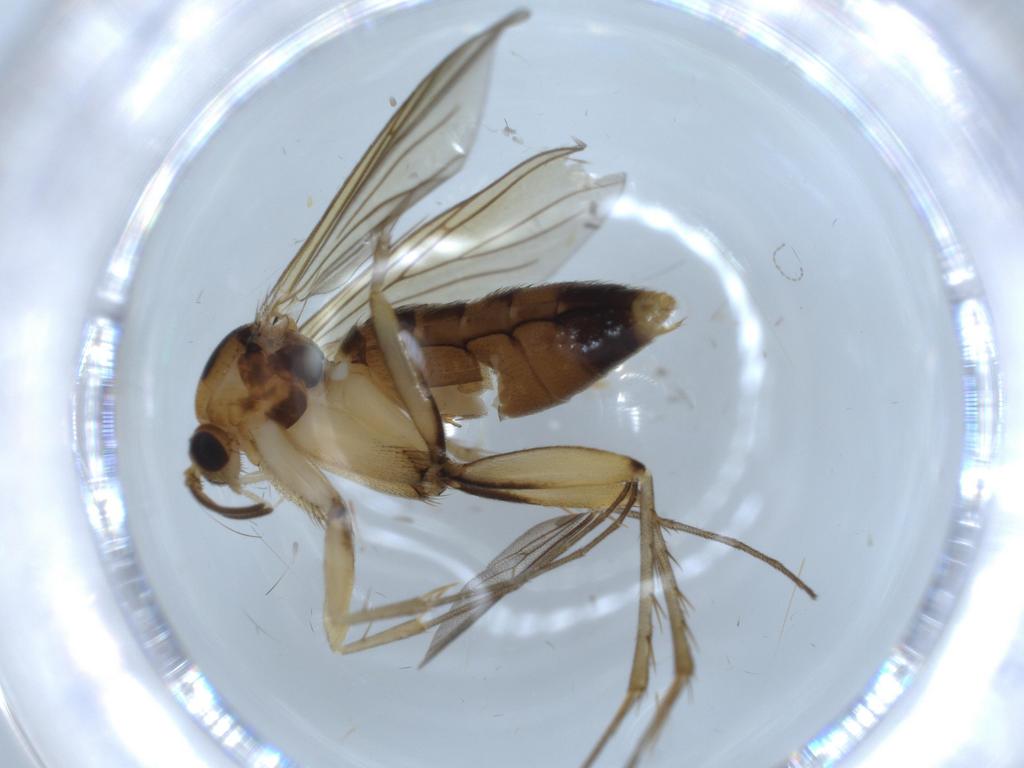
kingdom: Animalia
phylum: Arthropoda
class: Insecta
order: Diptera
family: Mycetophilidae
